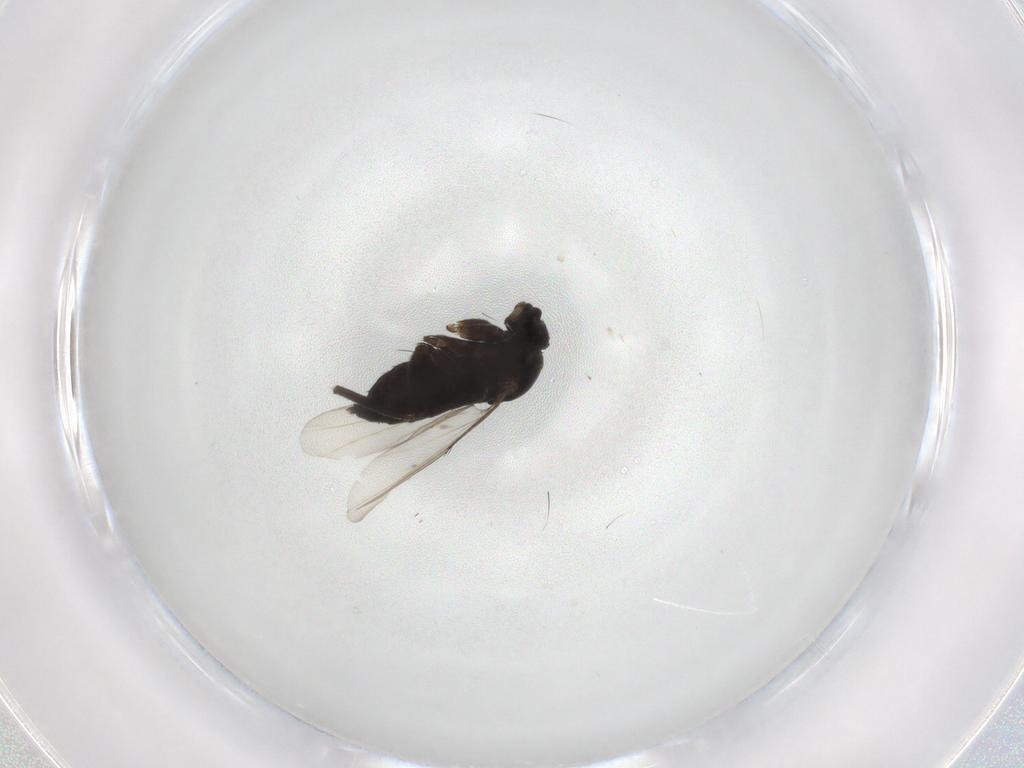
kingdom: Animalia
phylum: Arthropoda
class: Insecta
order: Diptera
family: Phoridae
